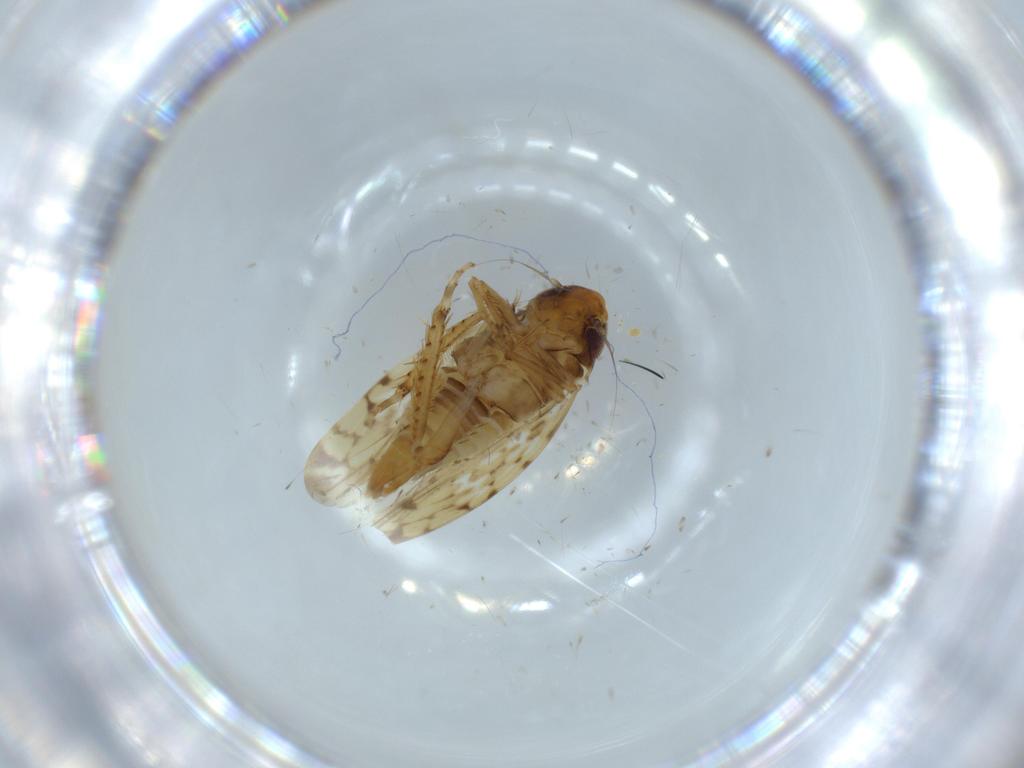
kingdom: Animalia
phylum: Arthropoda
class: Insecta
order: Hemiptera
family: Cicadellidae
